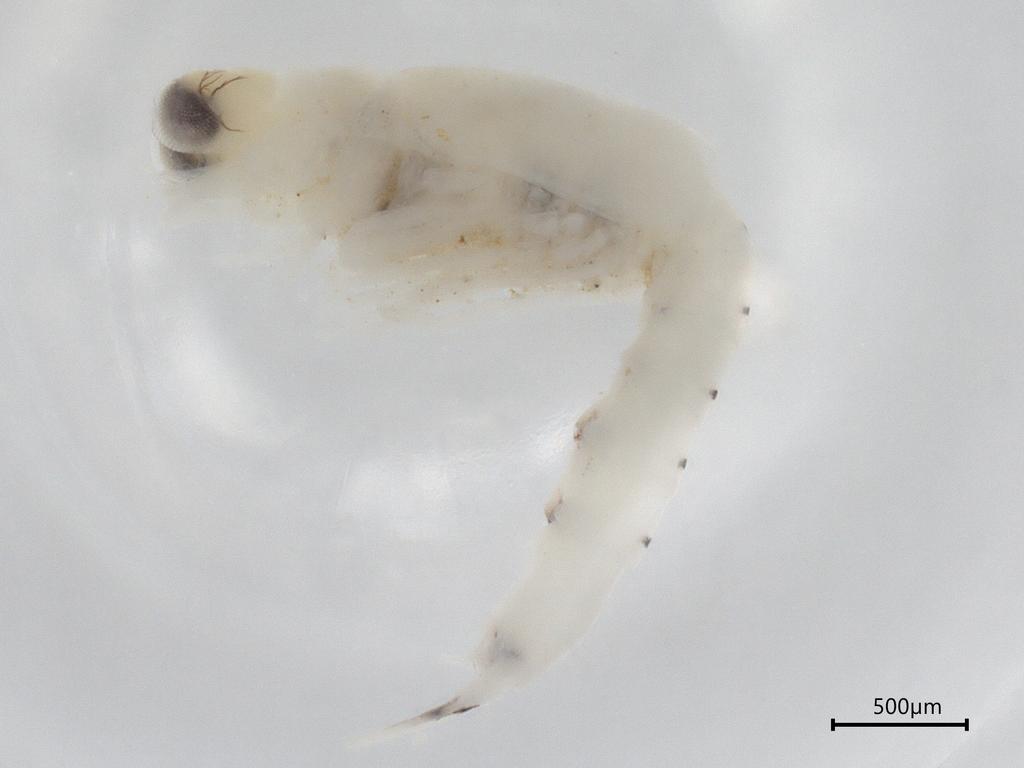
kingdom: Animalia
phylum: Arthropoda
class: Malacostraca
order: Mysida
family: Mysidae
